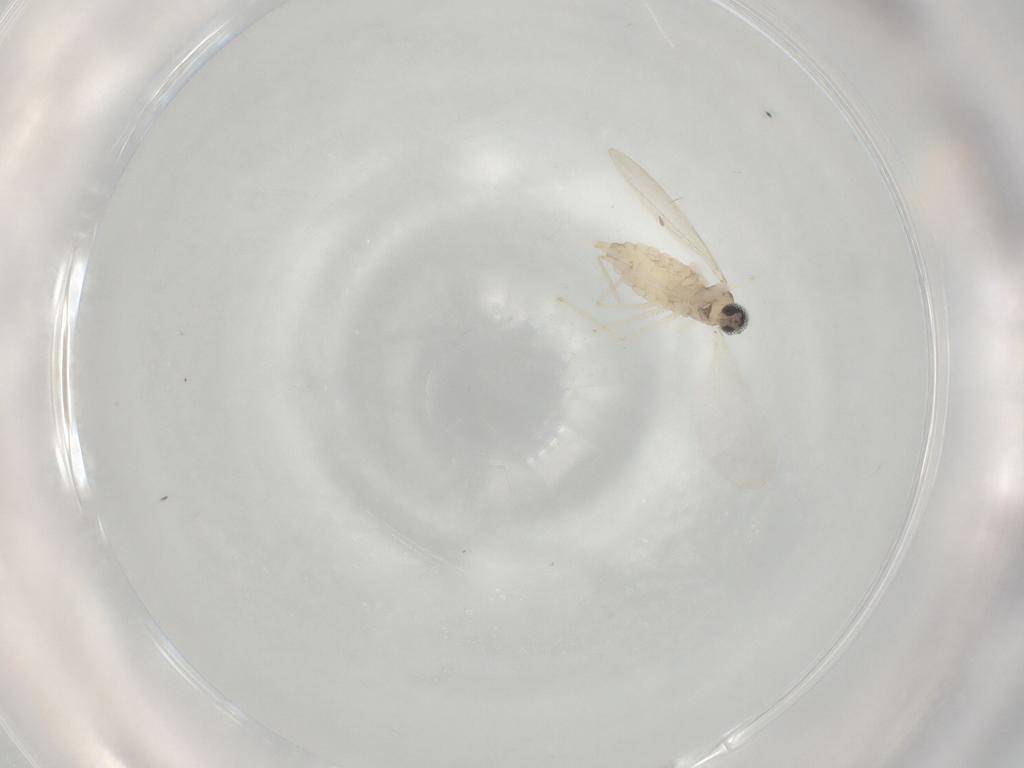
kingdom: Animalia
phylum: Arthropoda
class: Insecta
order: Diptera
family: Cecidomyiidae
